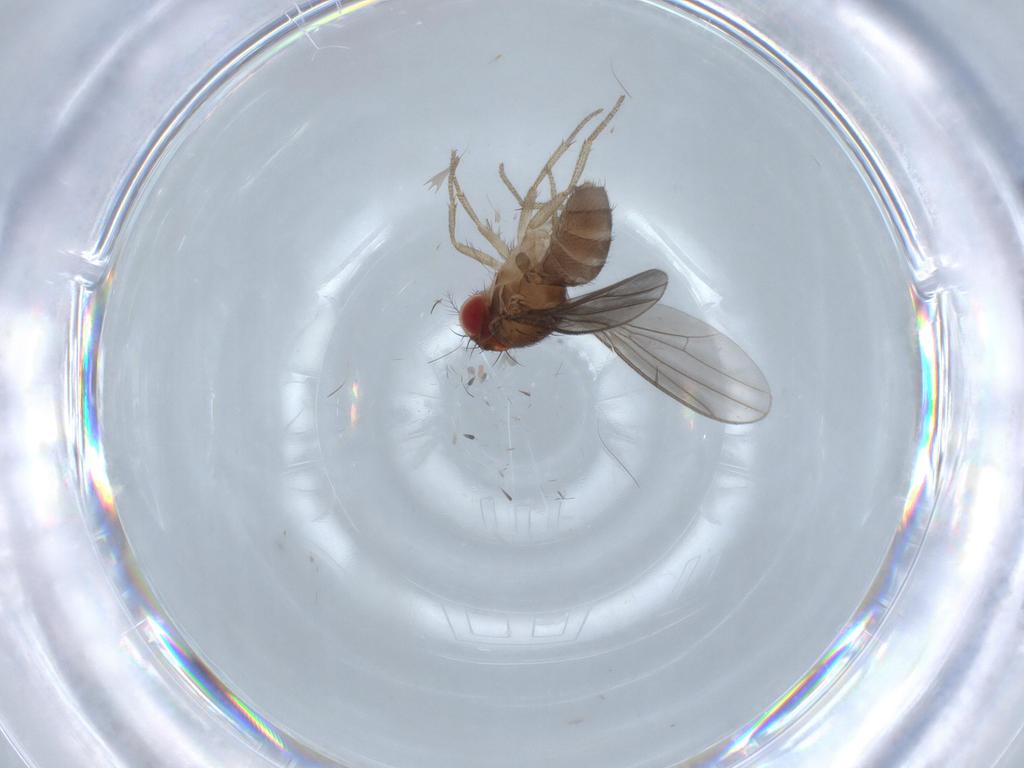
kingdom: Animalia
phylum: Arthropoda
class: Insecta
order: Diptera
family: Drosophilidae
